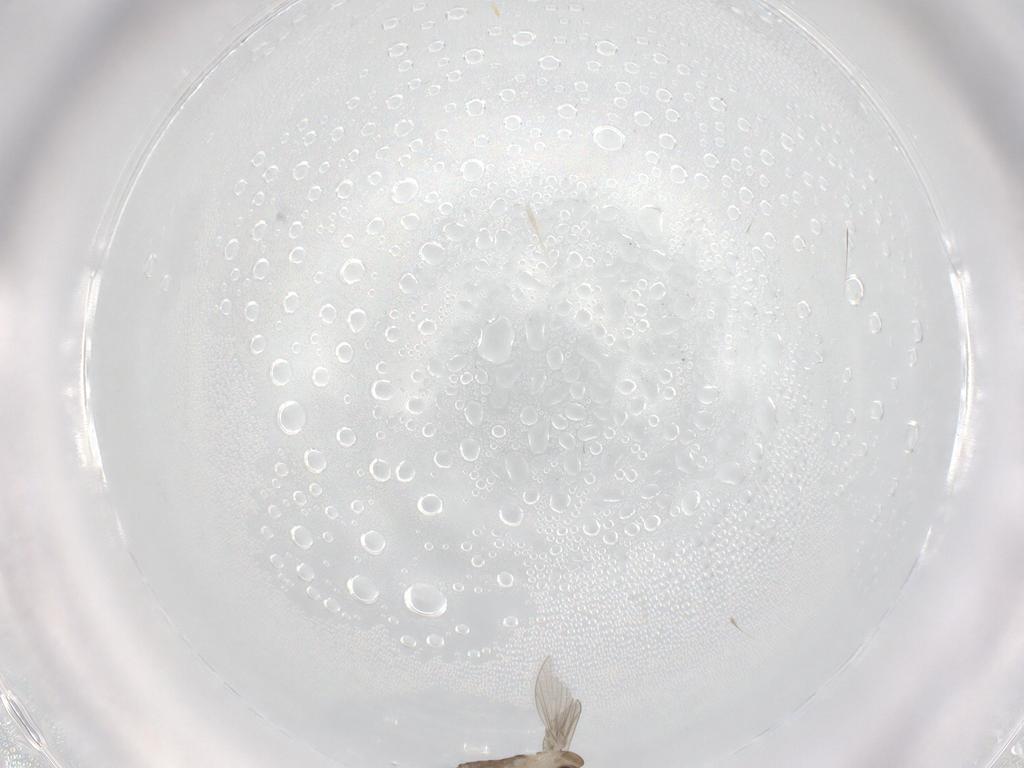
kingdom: Animalia
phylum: Arthropoda
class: Insecta
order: Diptera
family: Psychodidae
